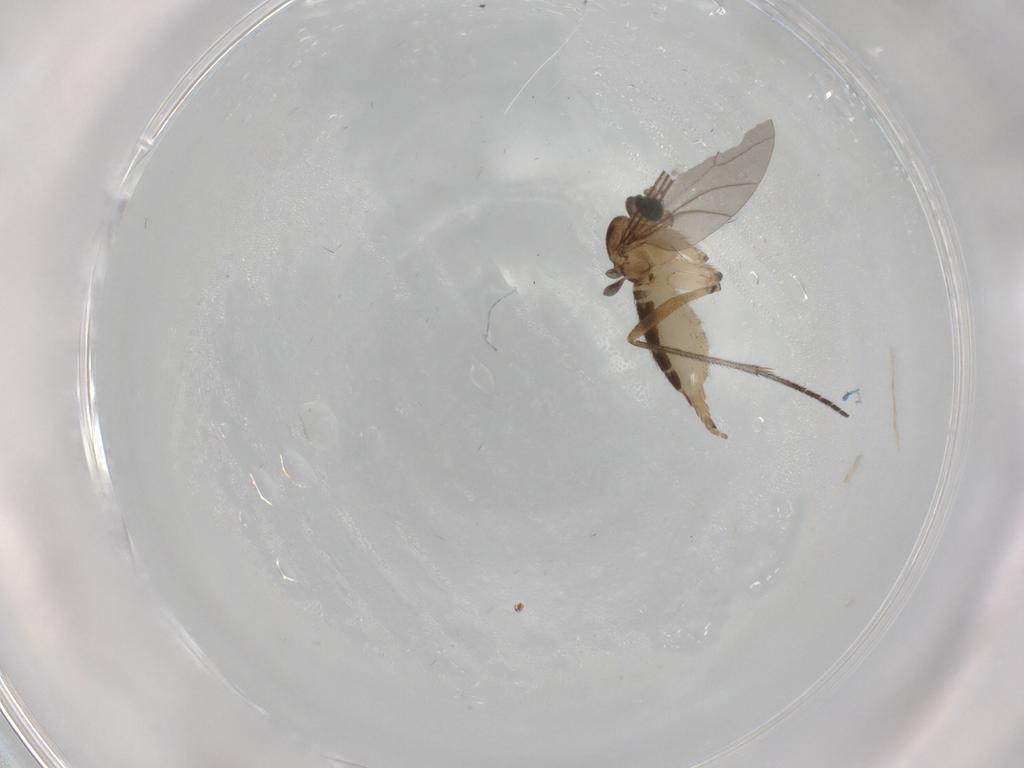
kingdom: Animalia
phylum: Arthropoda
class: Insecta
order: Diptera
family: Sciaridae
